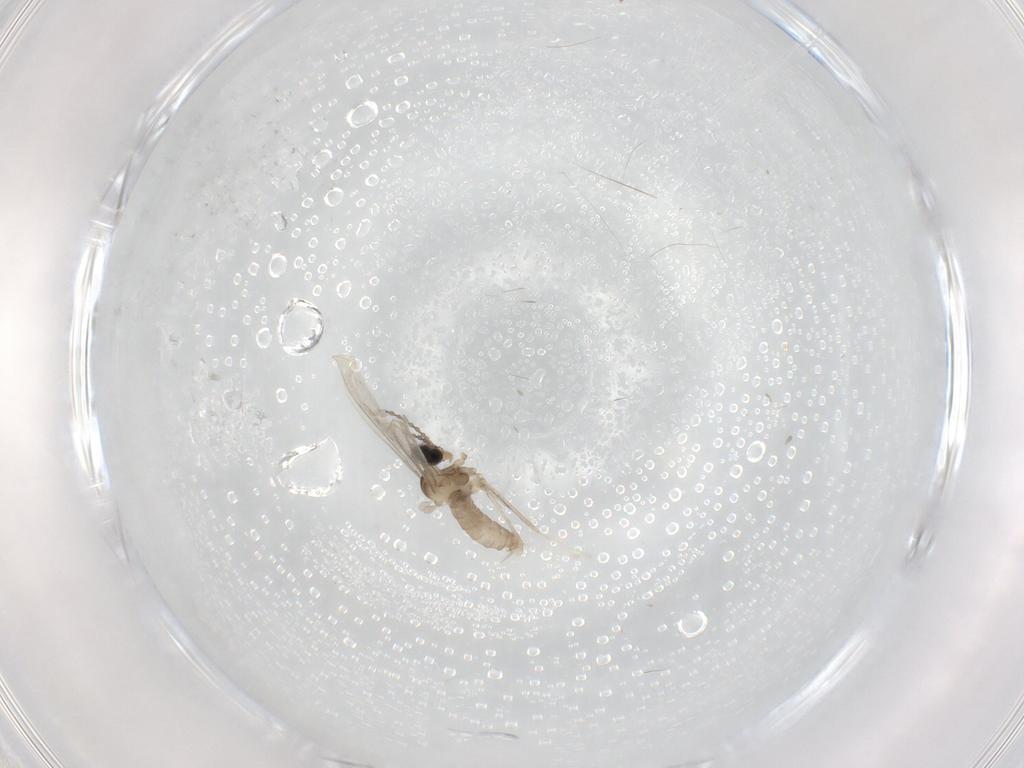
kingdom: Animalia
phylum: Arthropoda
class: Insecta
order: Diptera
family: Cecidomyiidae
